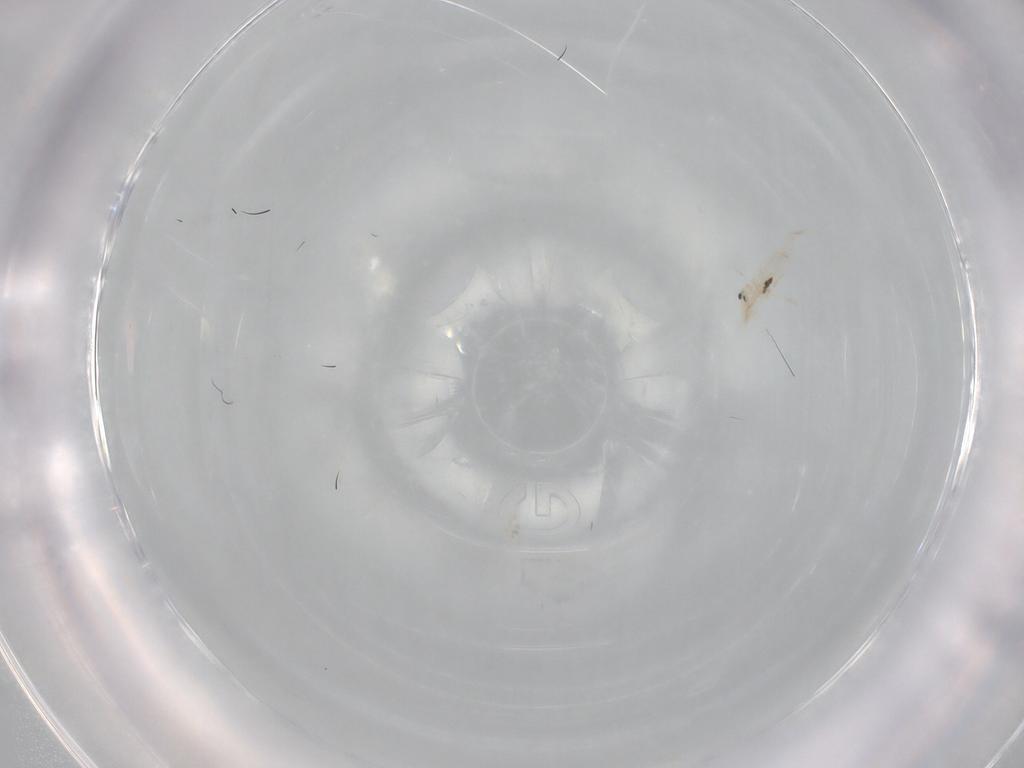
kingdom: Animalia
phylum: Arthropoda
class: Collembola
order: Entomobryomorpha
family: Entomobryidae
